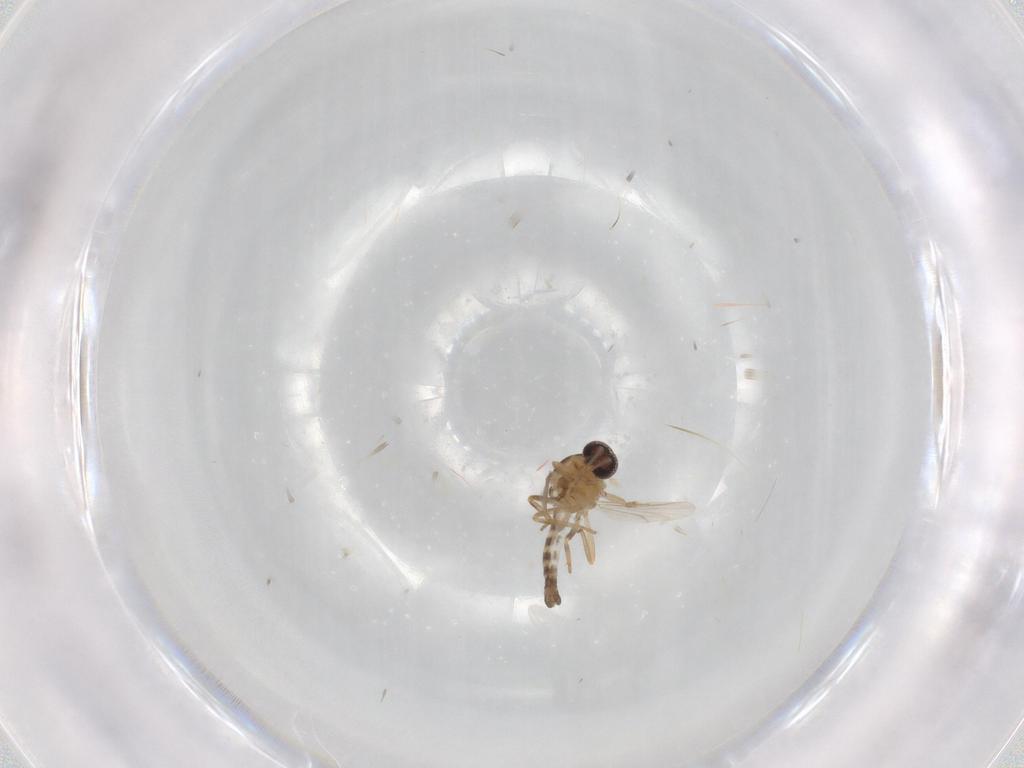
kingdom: Animalia
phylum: Arthropoda
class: Insecta
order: Diptera
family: Ceratopogonidae
